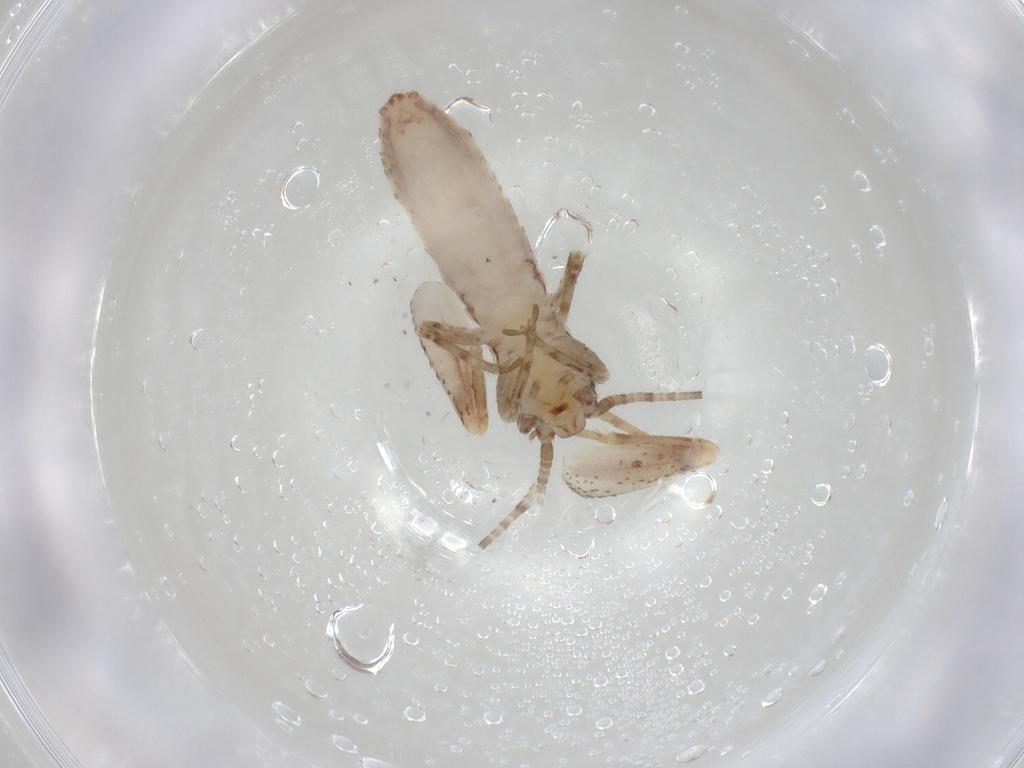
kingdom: Animalia
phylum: Arthropoda
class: Insecta
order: Orthoptera
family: Mogoplistidae
